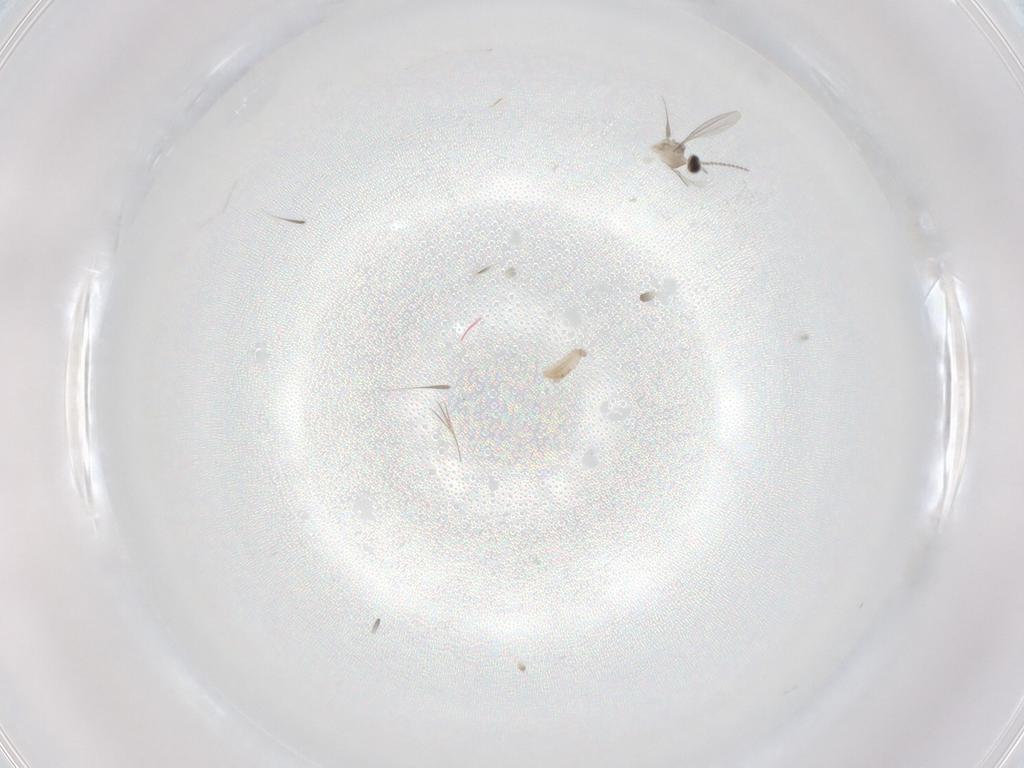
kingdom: Animalia
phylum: Arthropoda
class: Insecta
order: Diptera
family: Cecidomyiidae
